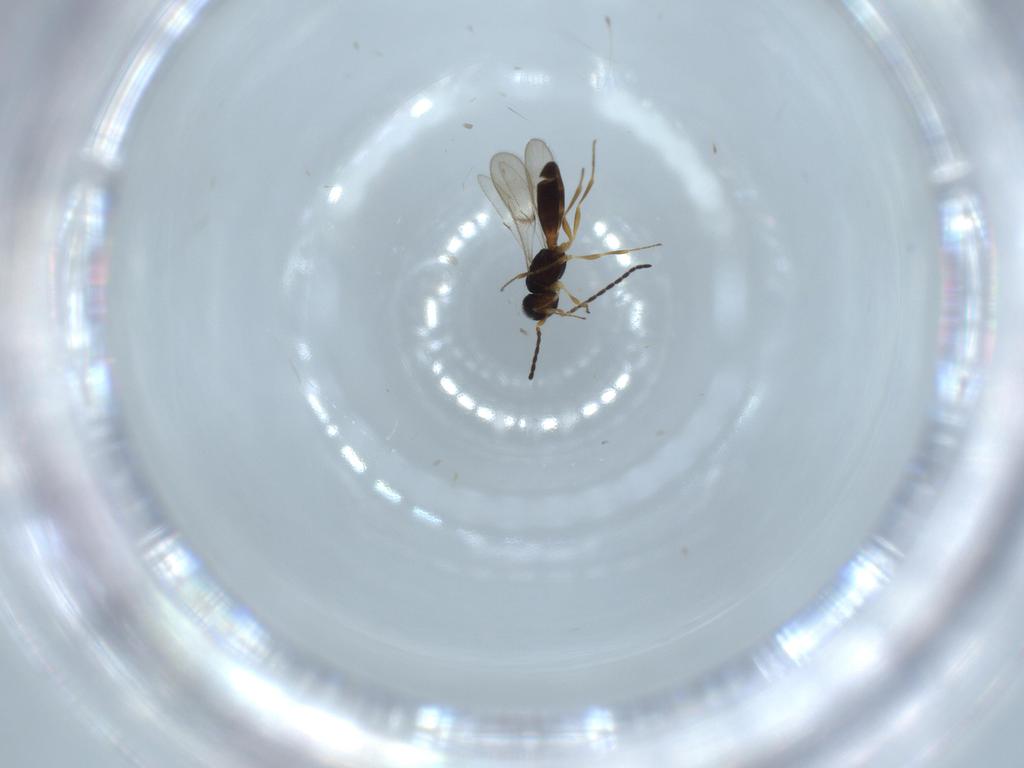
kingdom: Animalia
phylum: Arthropoda
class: Insecta
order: Hymenoptera
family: Scelionidae
